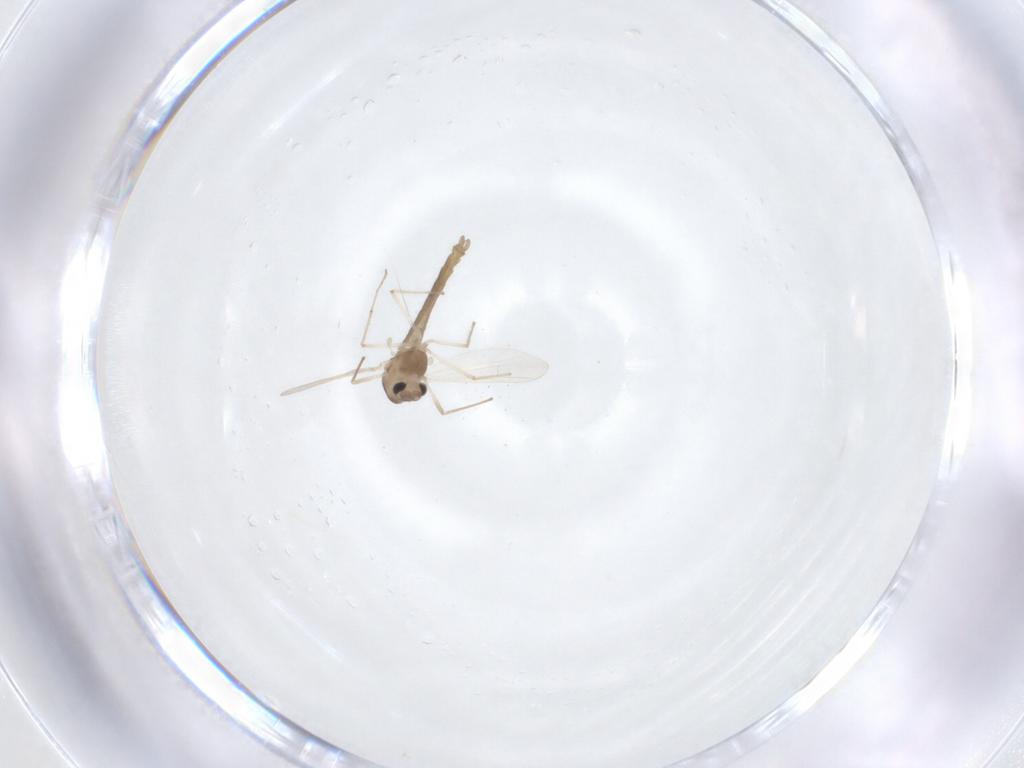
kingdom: Animalia
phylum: Arthropoda
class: Insecta
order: Diptera
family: Chironomidae
